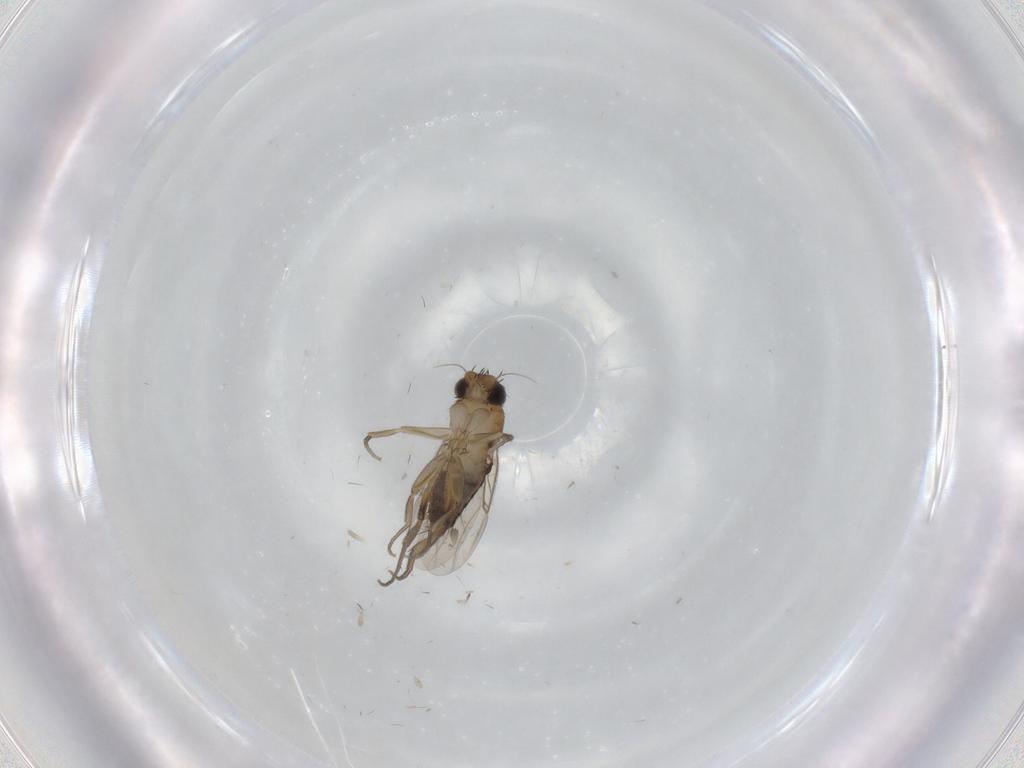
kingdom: Animalia
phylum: Arthropoda
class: Insecta
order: Diptera
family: Phoridae
